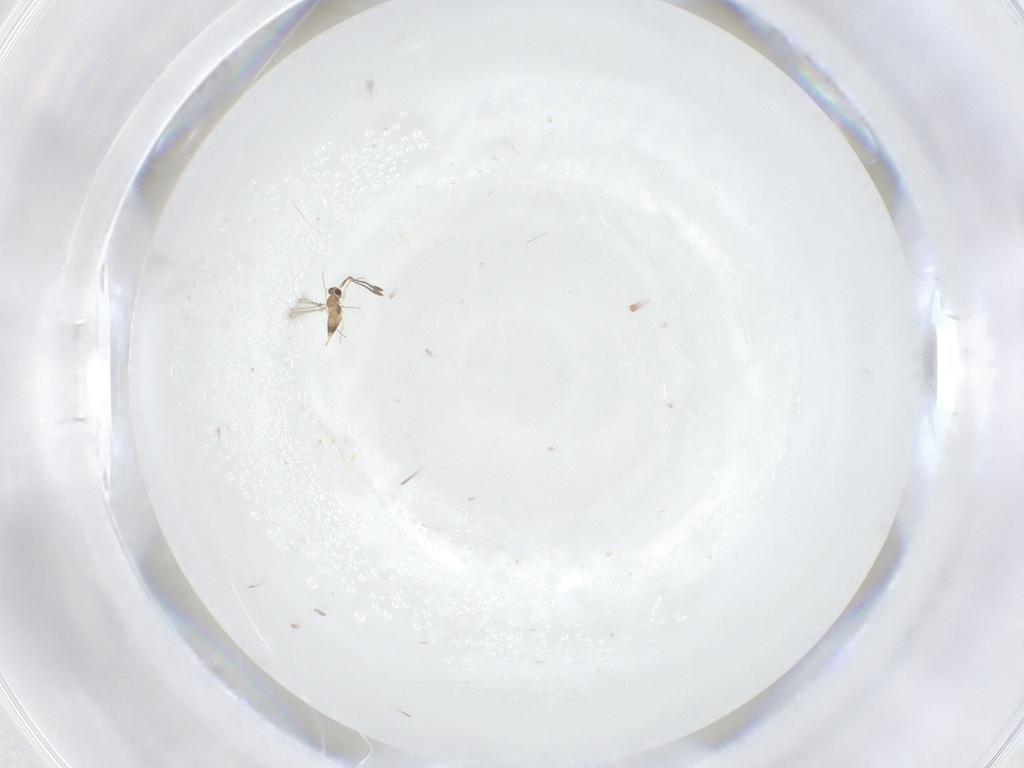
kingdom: Animalia
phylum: Arthropoda
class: Insecta
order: Hymenoptera
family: Mymaridae
